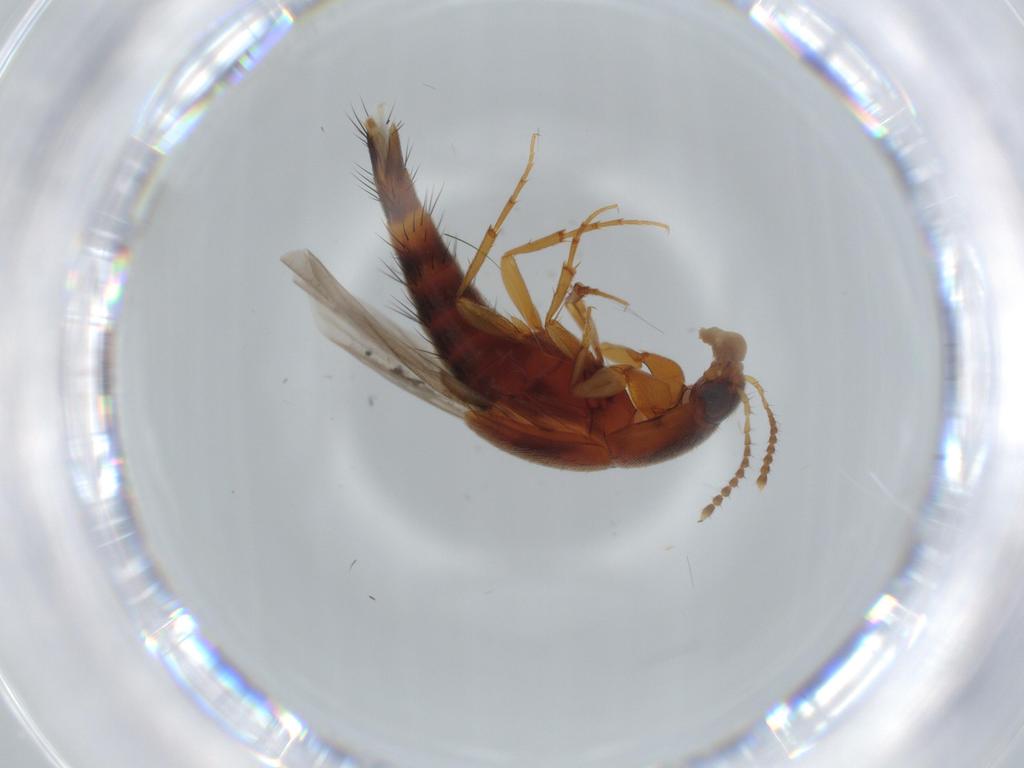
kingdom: Animalia
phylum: Arthropoda
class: Insecta
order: Coleoptera
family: Staphylinidae
